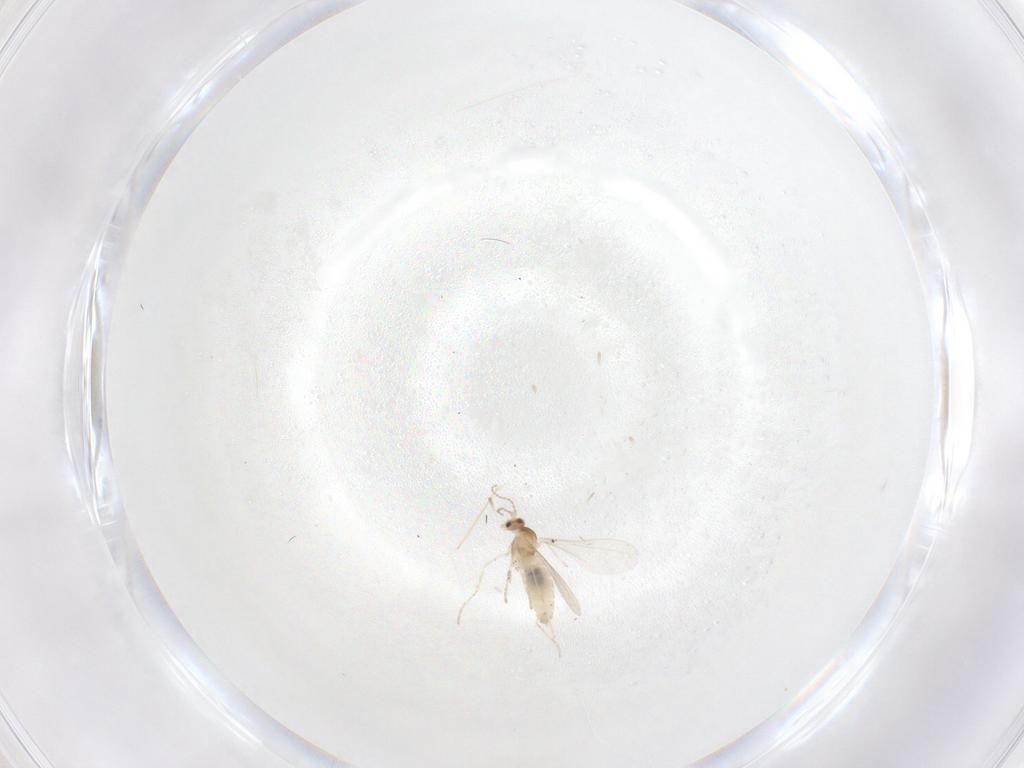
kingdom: Animalia
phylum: Arthropoda
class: Insecta
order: Diptera
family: Cecidomyiidae
